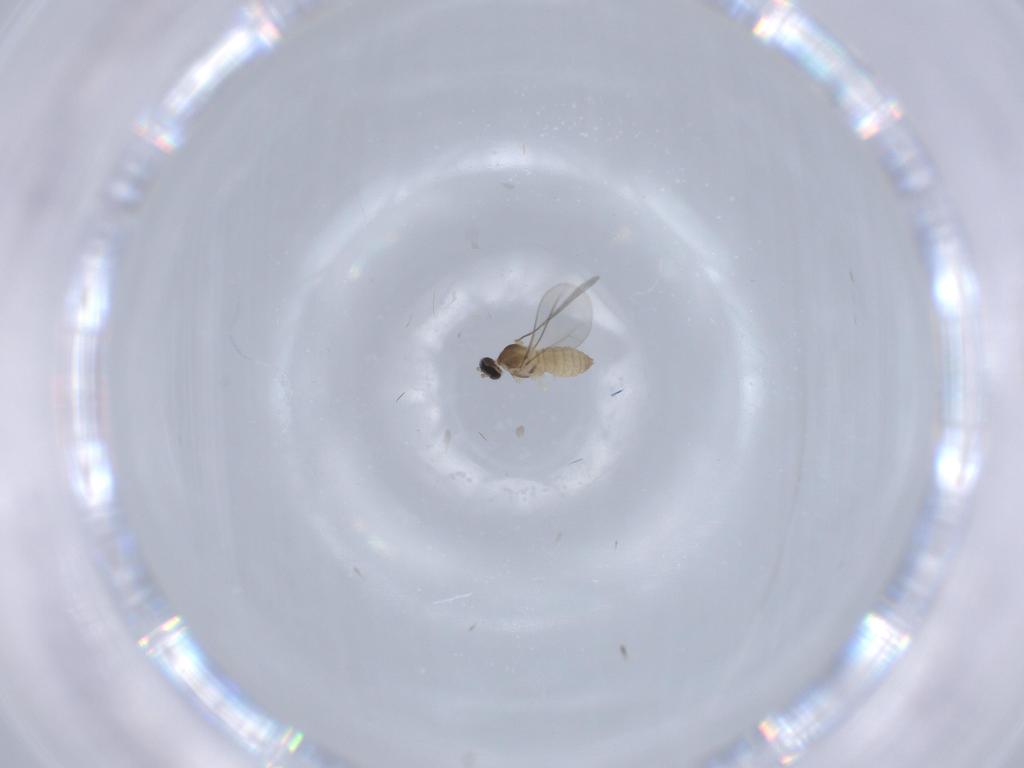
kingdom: Animalia
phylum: Arthropoda
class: Insecta
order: Diptera
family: Cecidomyiidae
